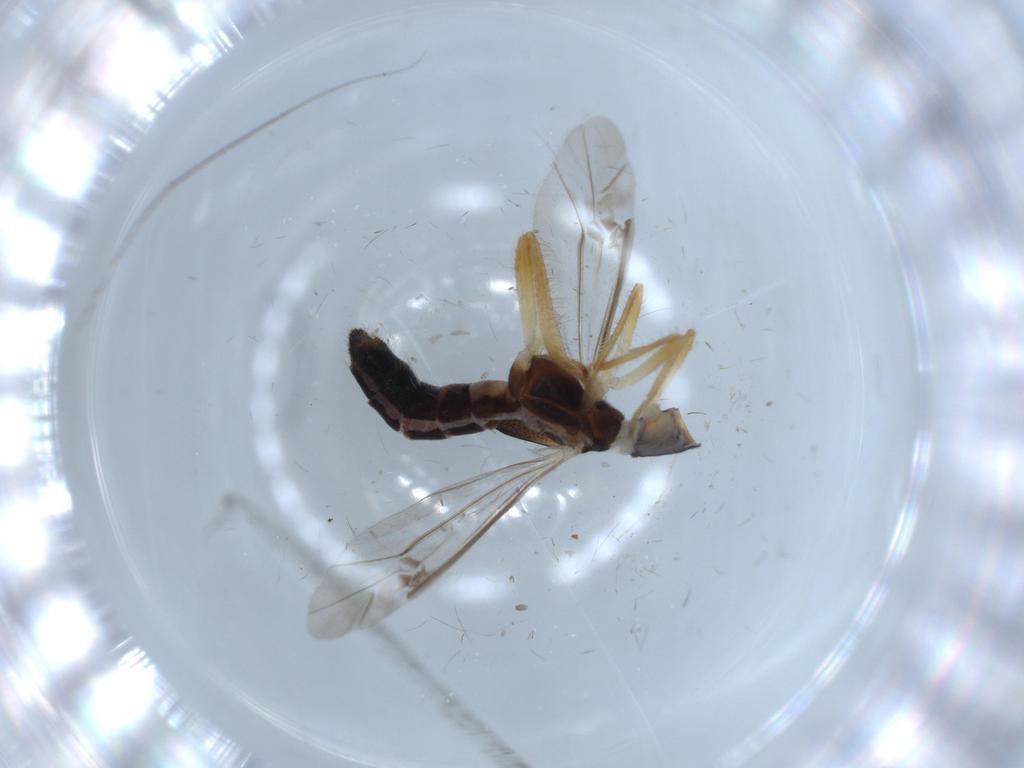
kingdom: Animalia
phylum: Arthropoda
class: Insecta
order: Coleoptera
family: Cleridae
